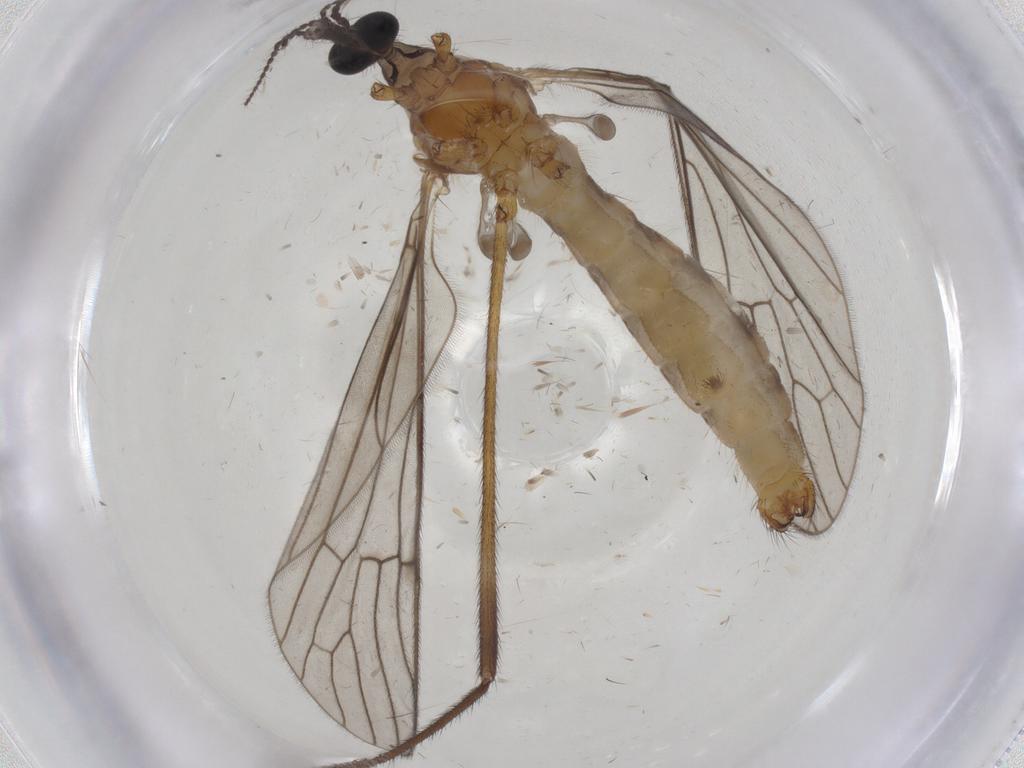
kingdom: Animalia
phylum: Arthropoda
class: Insecta
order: Diptera
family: Limoniidae
